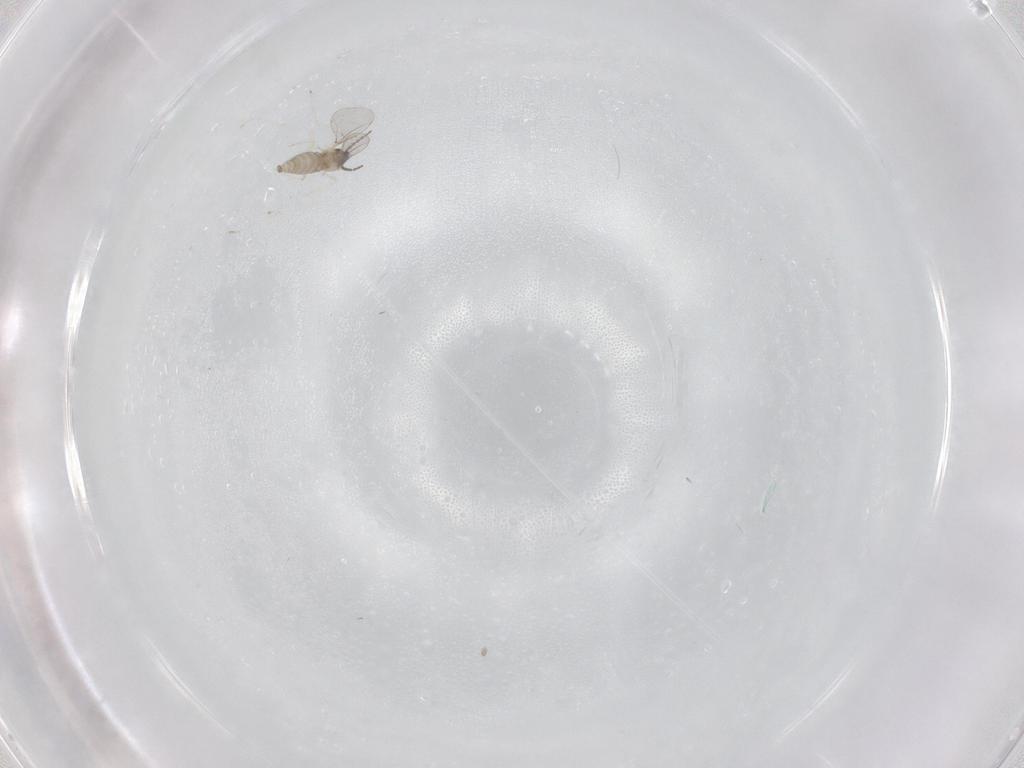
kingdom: Animalia
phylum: Arthropoda
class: Insecta
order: Diptera
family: Cecidomyiidae
